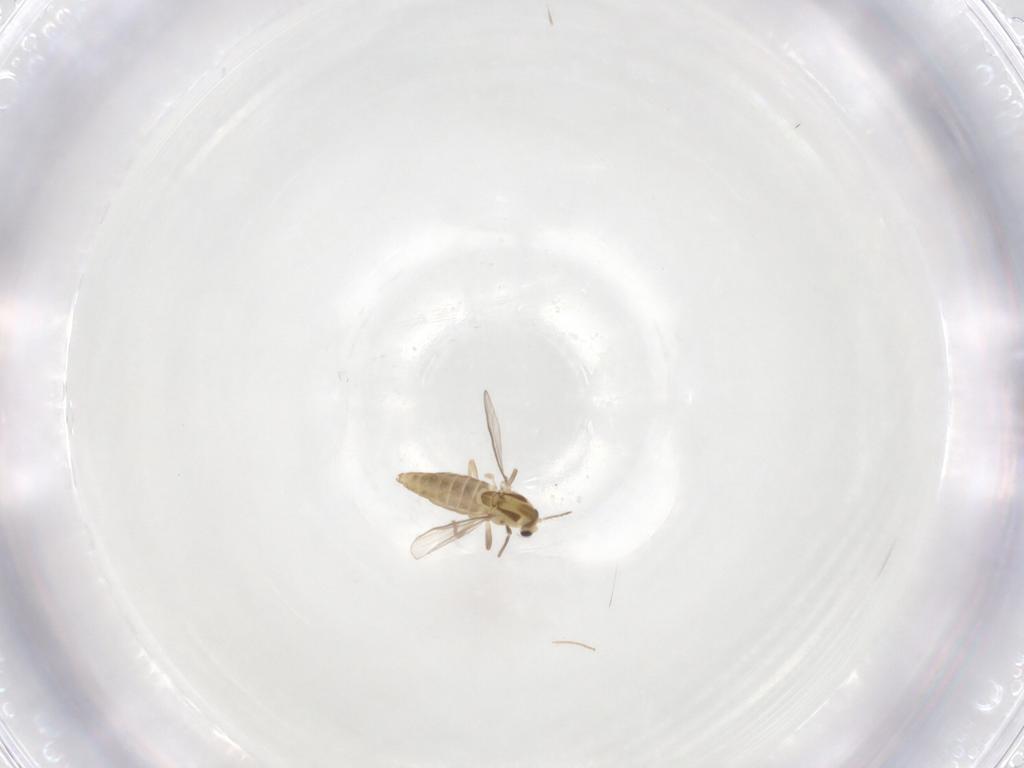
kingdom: Animalia
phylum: Arthropoda
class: Insecta
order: Diptera
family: Chironomidae
